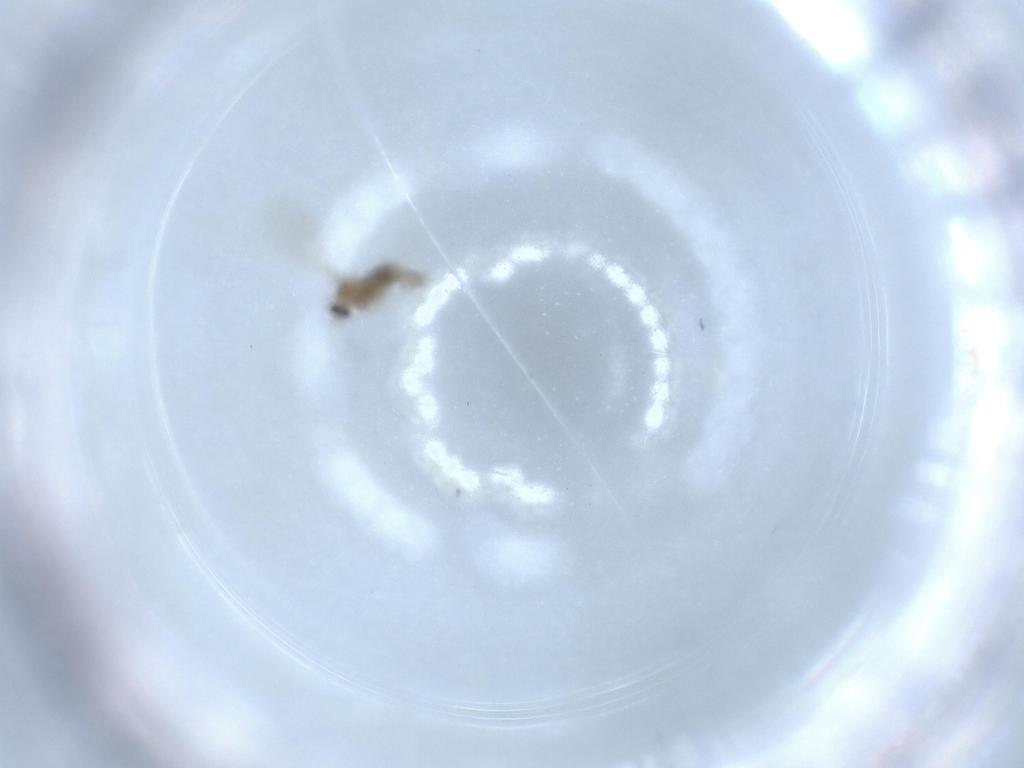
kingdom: Animalia
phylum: Arthropoda
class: Insecta
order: Diptera
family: Cecidomyiidae
